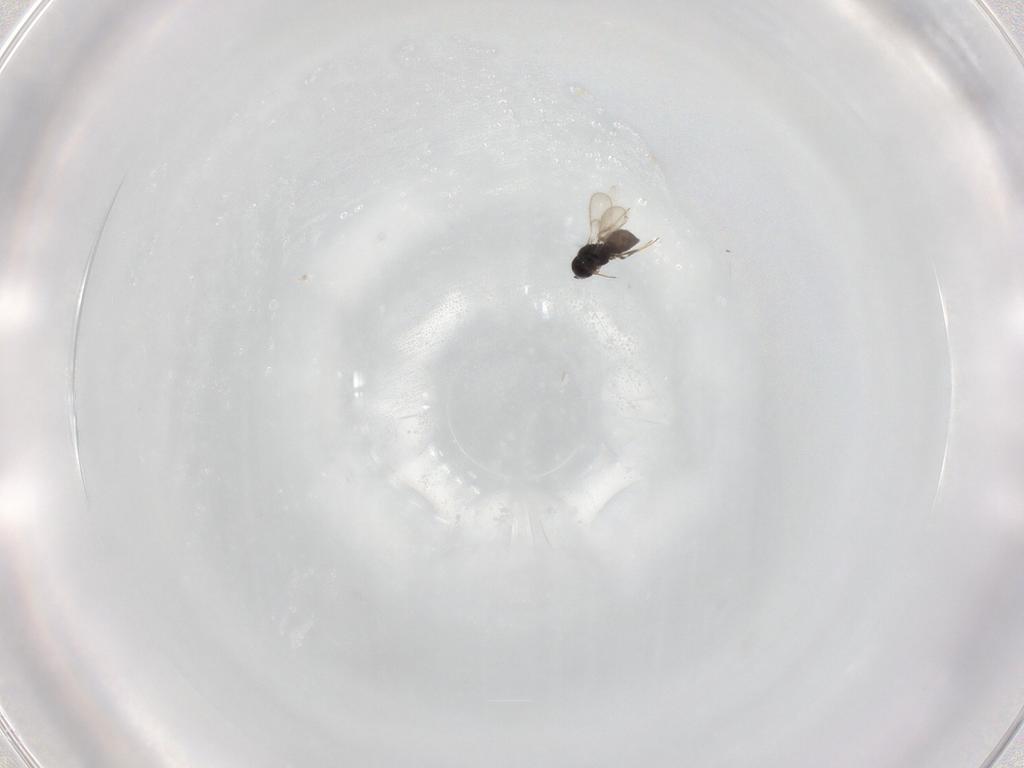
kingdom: Animalia
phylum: Arthropoda
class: Insecta
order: Hymenoptera
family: Scelionidae
